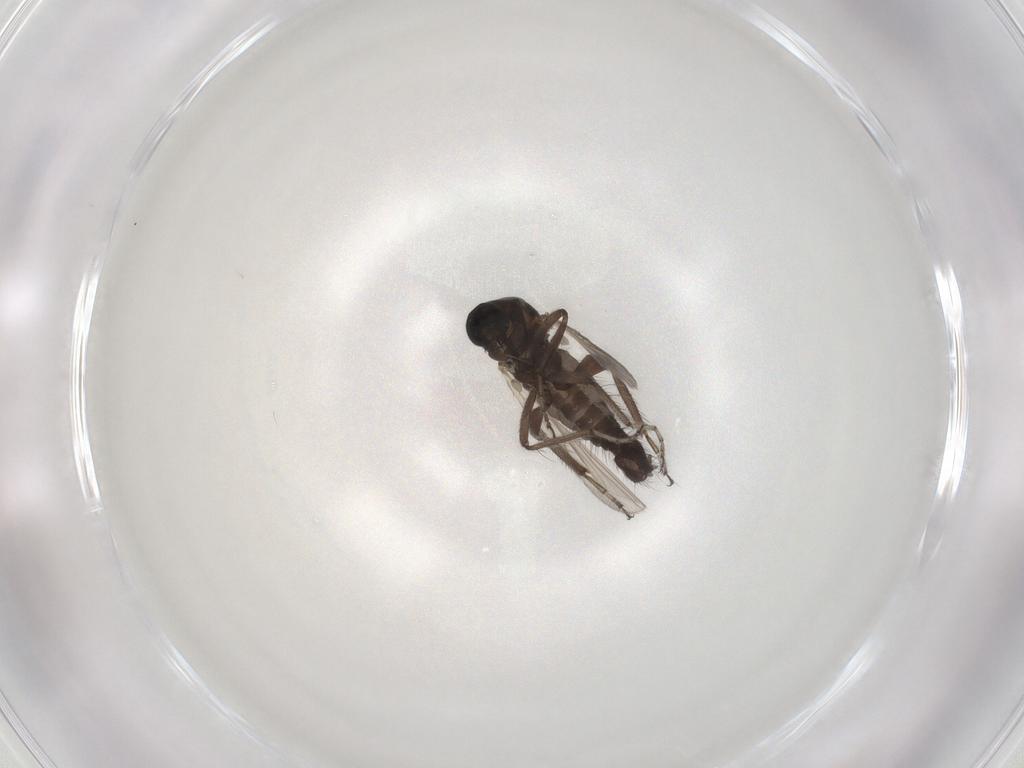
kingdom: Animalia
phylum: Arthropoda
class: Insecta
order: Diptera
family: Ceratopogonidae
